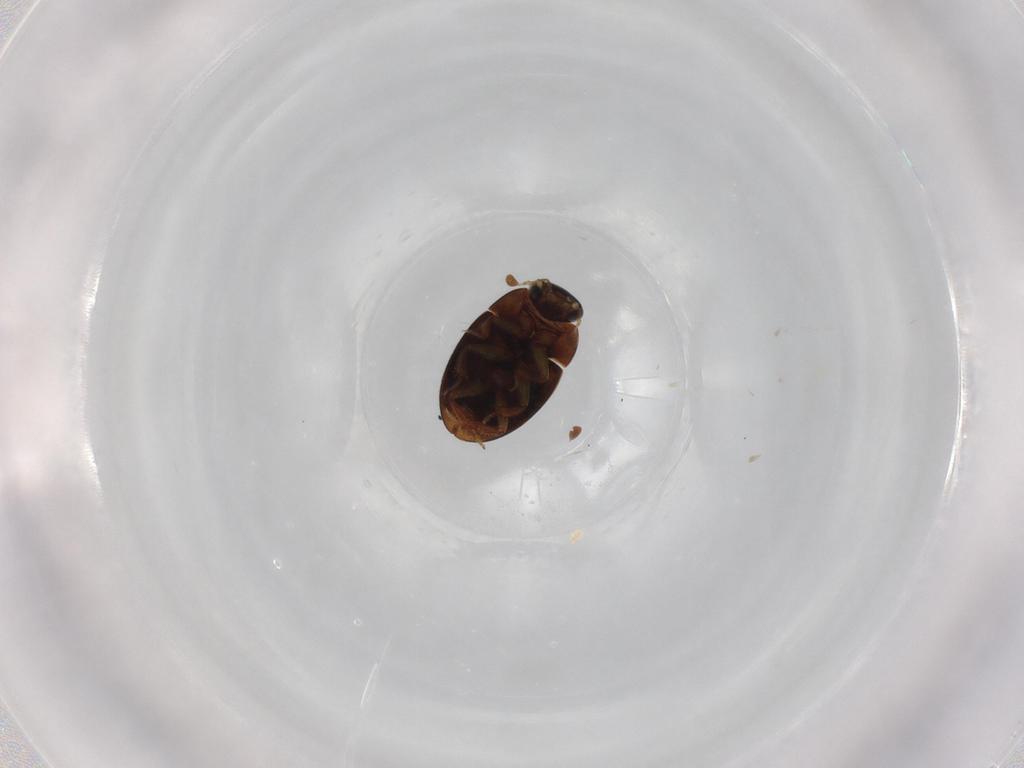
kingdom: Animalia
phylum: Arthropoda
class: Insecta
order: Coleoptera
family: Hydrophilidae
